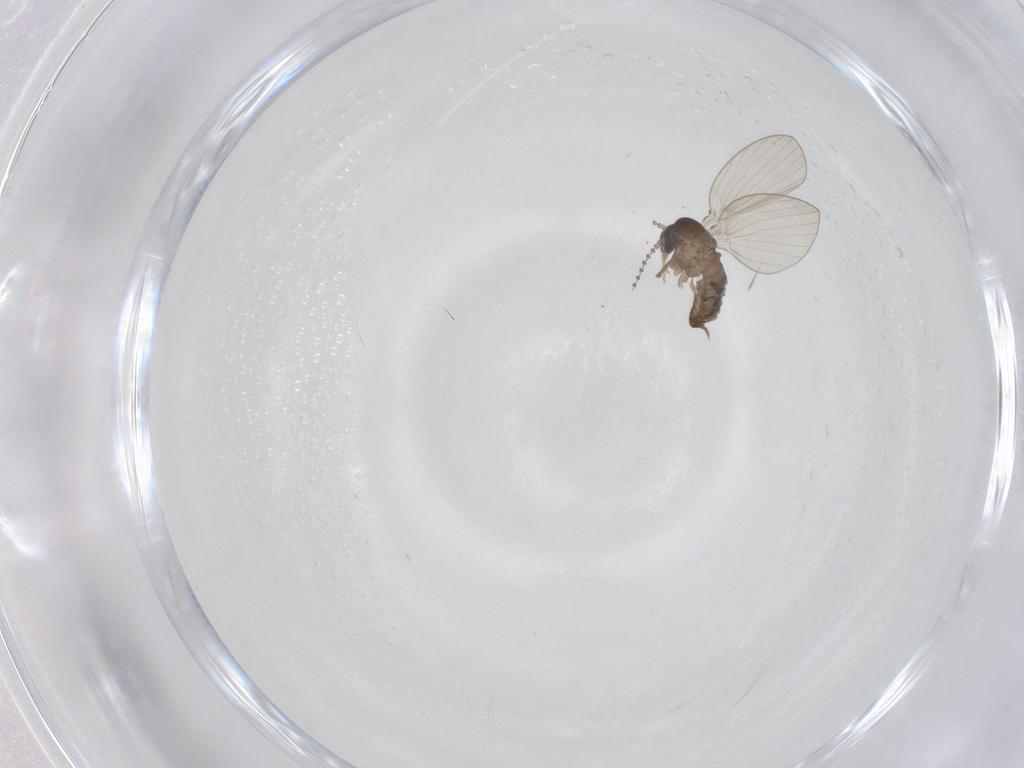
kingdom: Animalia
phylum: Arthropoda
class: Insecta
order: Diptera
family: Psychodidae
